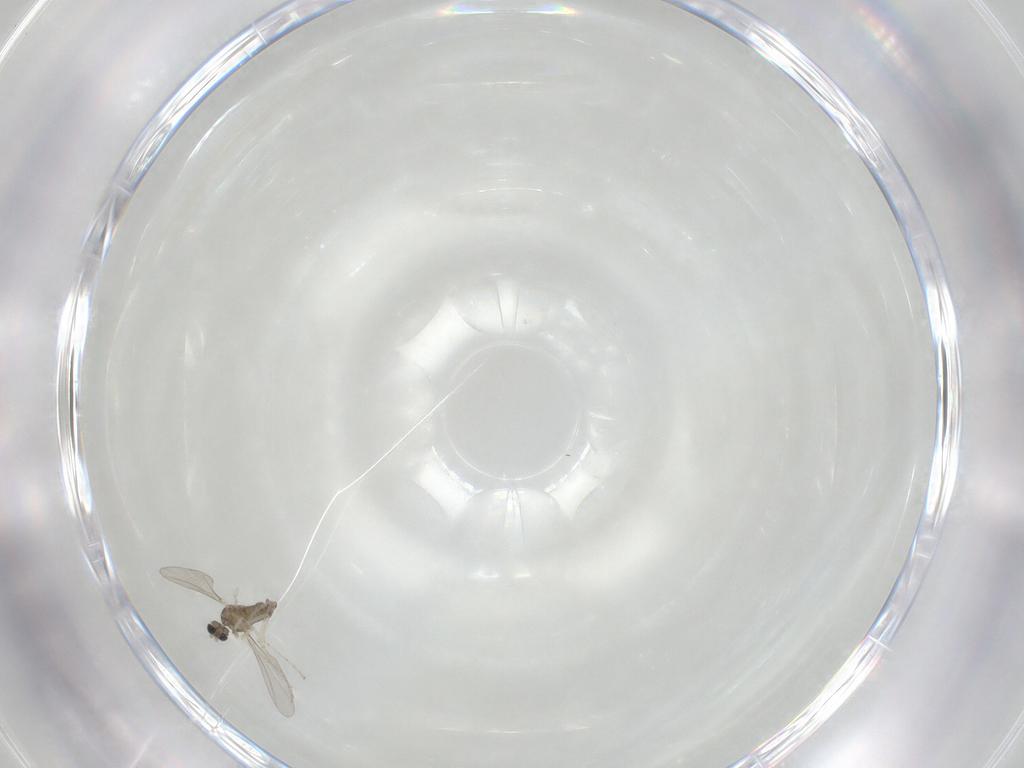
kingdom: Animalia
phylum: Arthropoda
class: Insecta
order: Diptera
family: Cecidomyiidae
